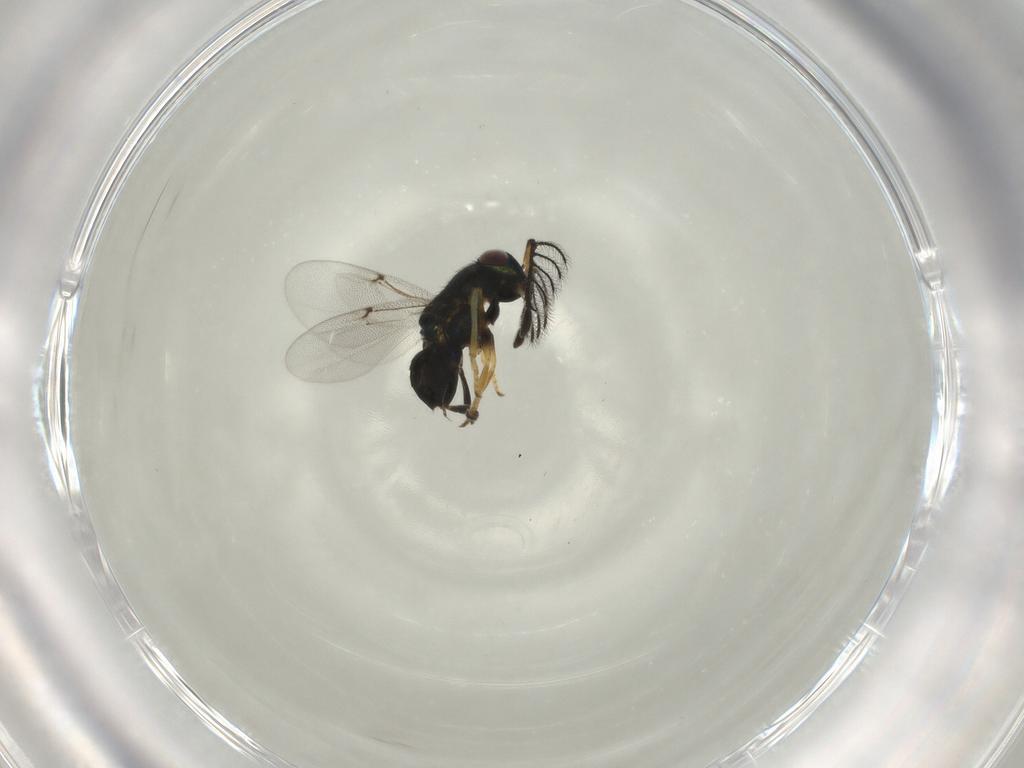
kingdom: Animalia
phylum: Arthropoda
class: Insecta
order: Hymenoptera
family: Encyrtidae
